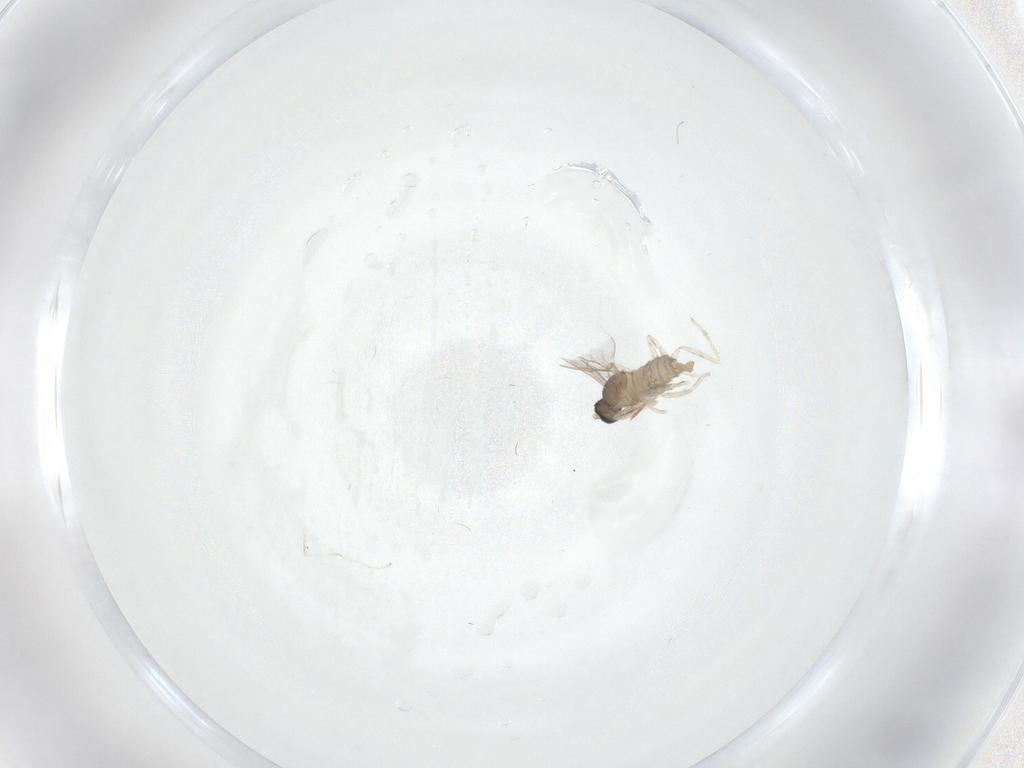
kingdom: Animalia
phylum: Arthropoda
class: Insecta
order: Diptera
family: Cecidomyiidae
